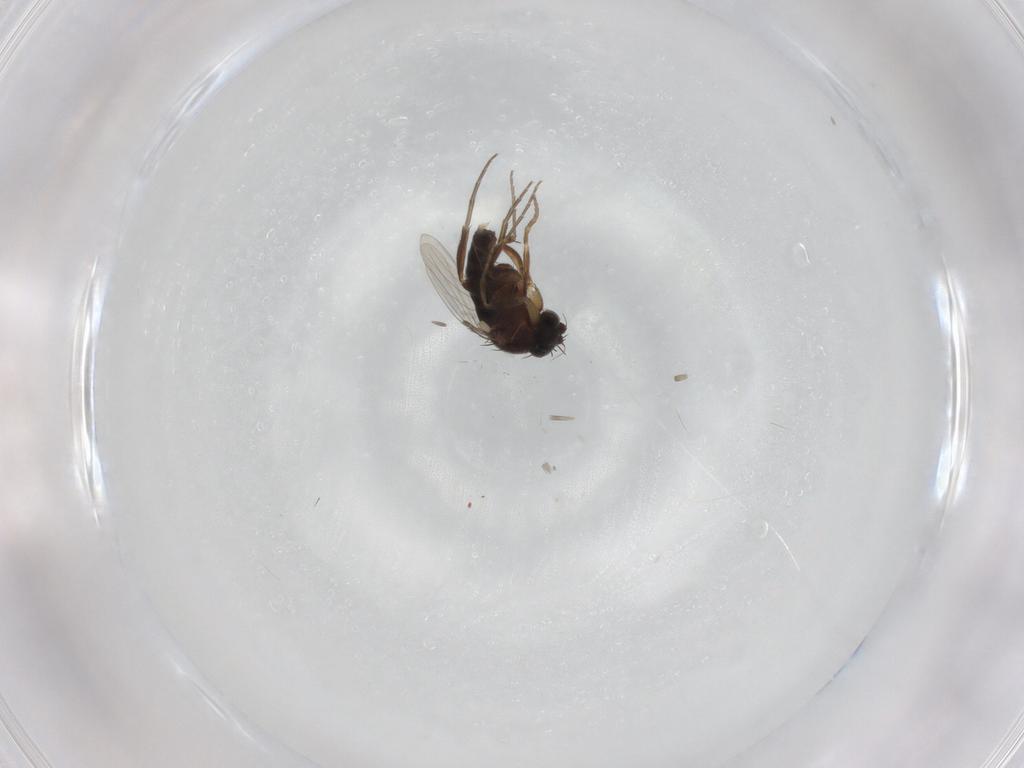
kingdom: Animalia
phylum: Arthropoda
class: Insecta
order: Diptera
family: Phoridae
